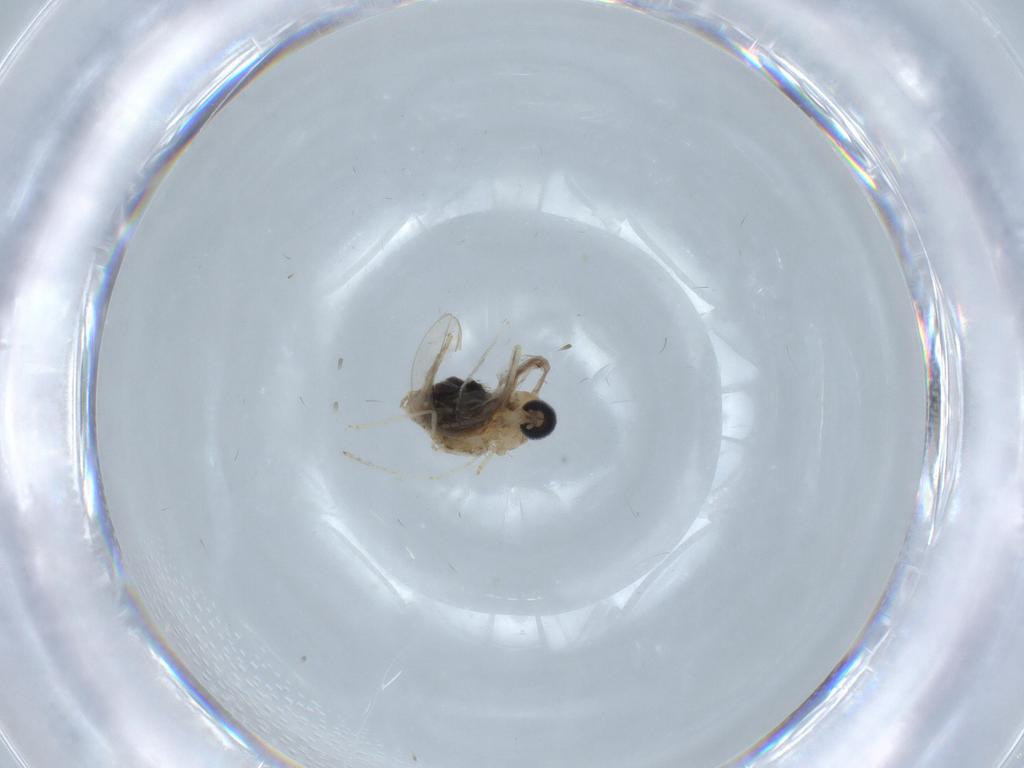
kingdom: Animalia
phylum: Arthropoda
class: Insecta
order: Diptera
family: Cecidomyiidae
